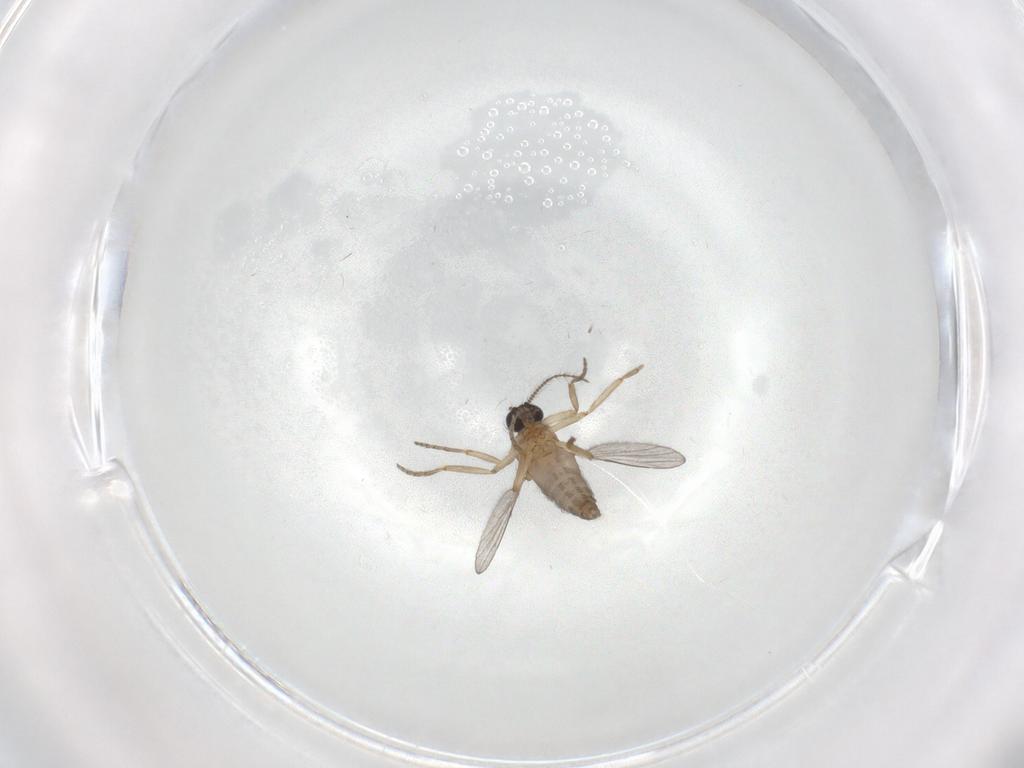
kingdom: Animalia
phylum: Arthropoda
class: Insecta
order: Diptera
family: Ceratopogonidae
